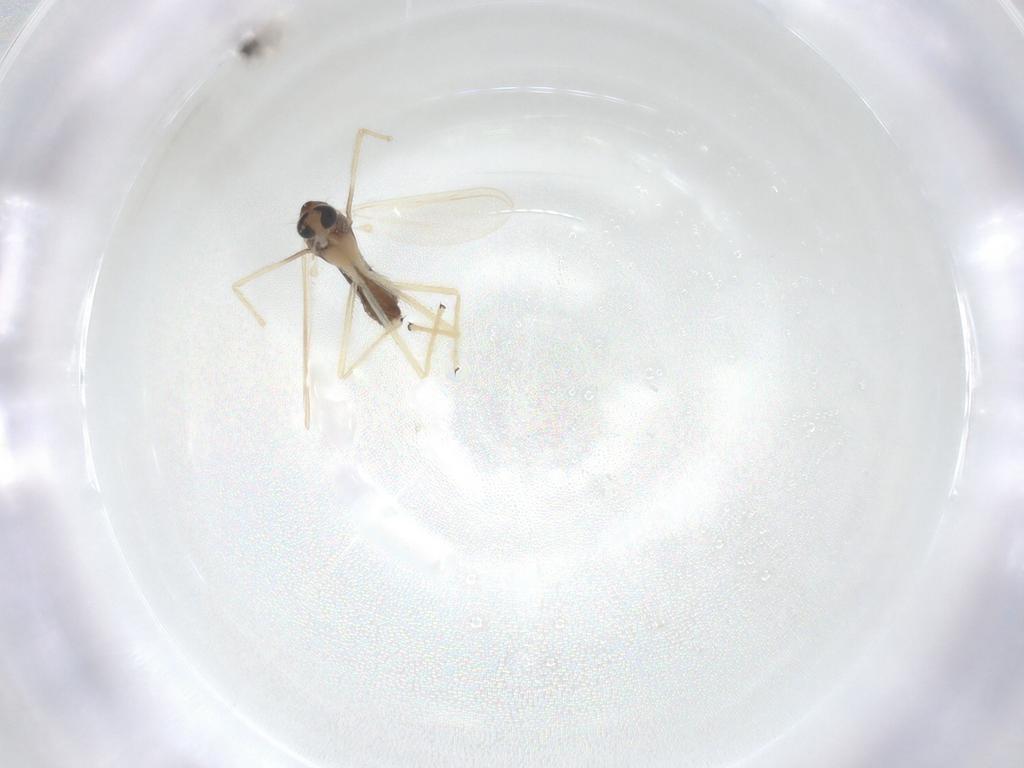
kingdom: Animalia
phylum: Arthropoda
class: Insecta
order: Diptera
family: Chironomidae
